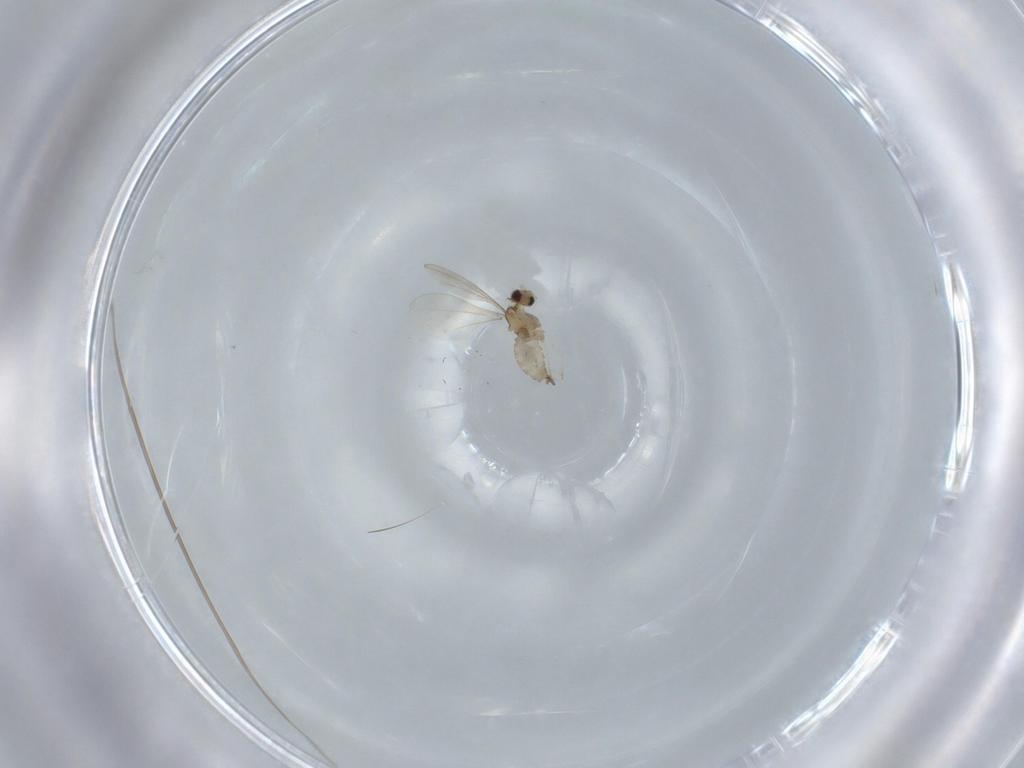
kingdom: Animalia
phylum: Arthropoda
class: Insecta
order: Diptera
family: Cecidomyiidae
